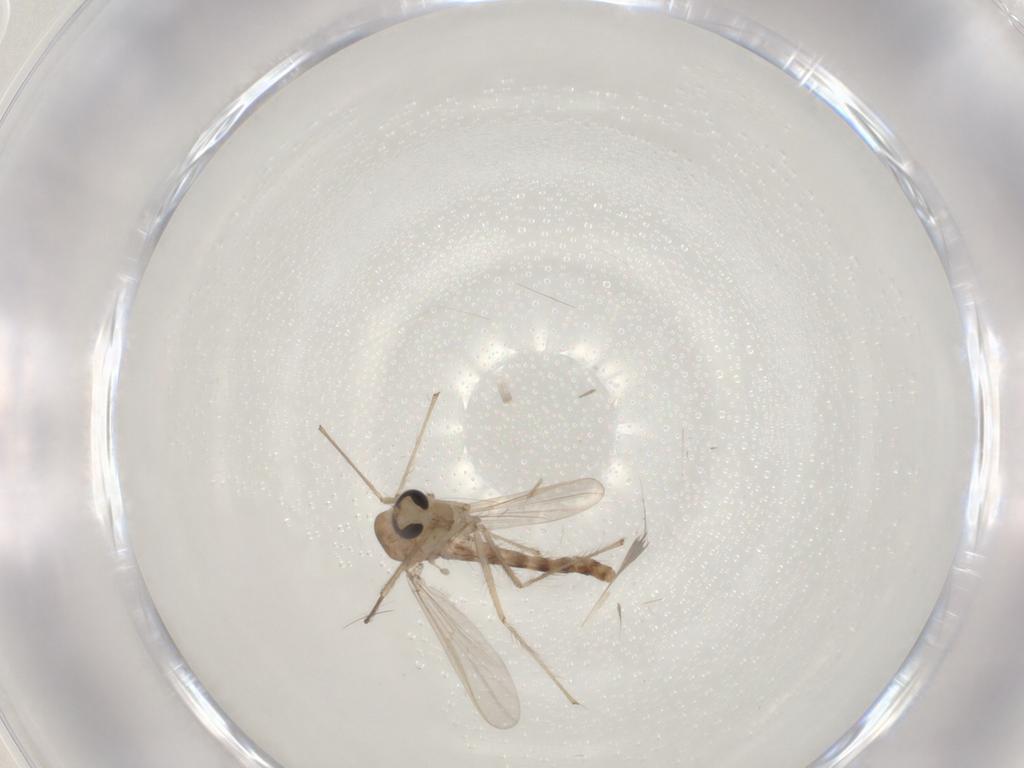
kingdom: Animalia
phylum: Arthropoda
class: Insecta
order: Diptera
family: Chironomidae
